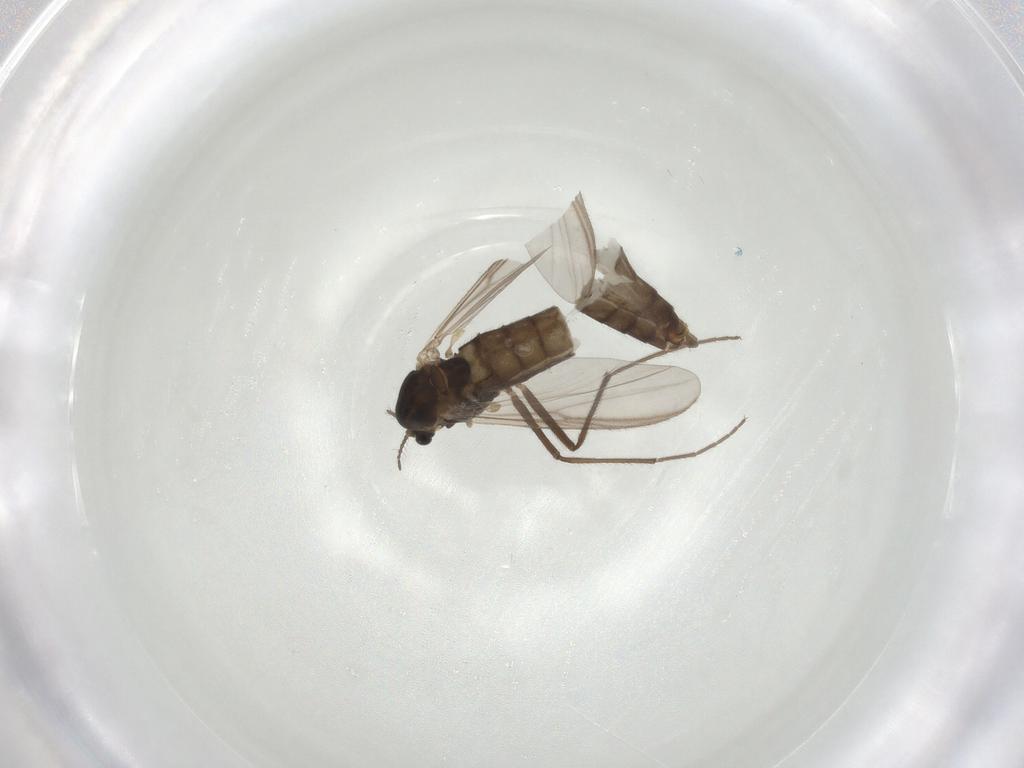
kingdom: Animalia
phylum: Arthropoda
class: Insecta
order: Diptera
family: Chironomidae
